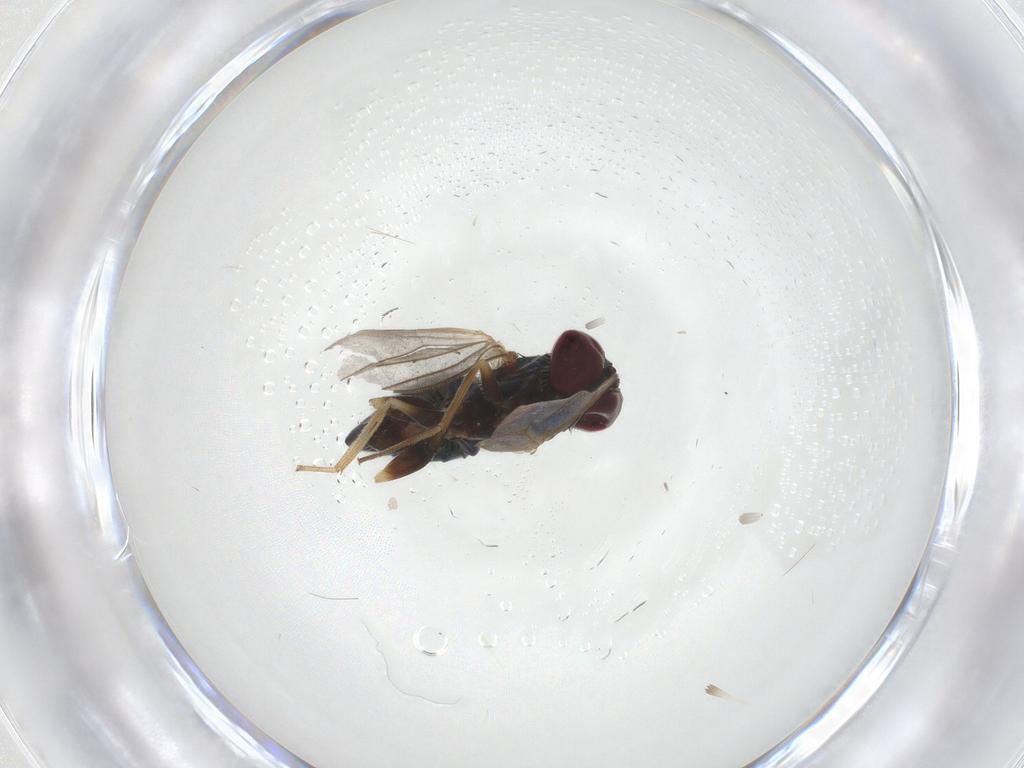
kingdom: Animalia
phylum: Arthropoda
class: Insecta
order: Diptera
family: Dolichopodidae
